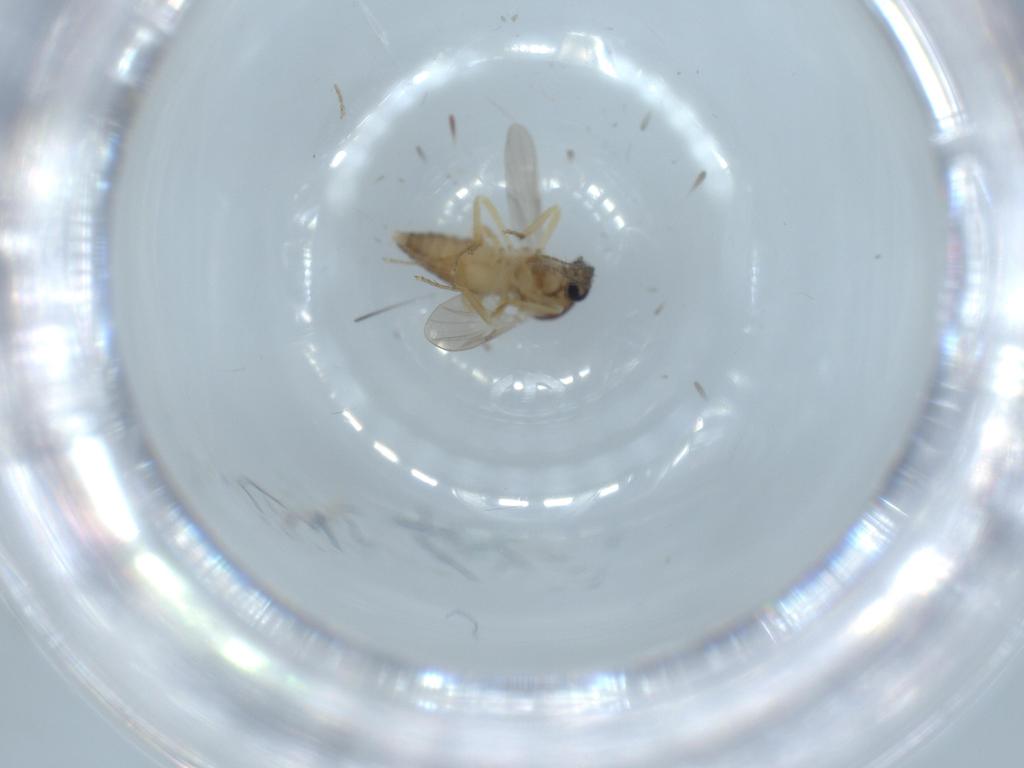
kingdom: Animalia
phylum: Arthropoda
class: Insecta
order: Diptera
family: Ceratopogonidae
